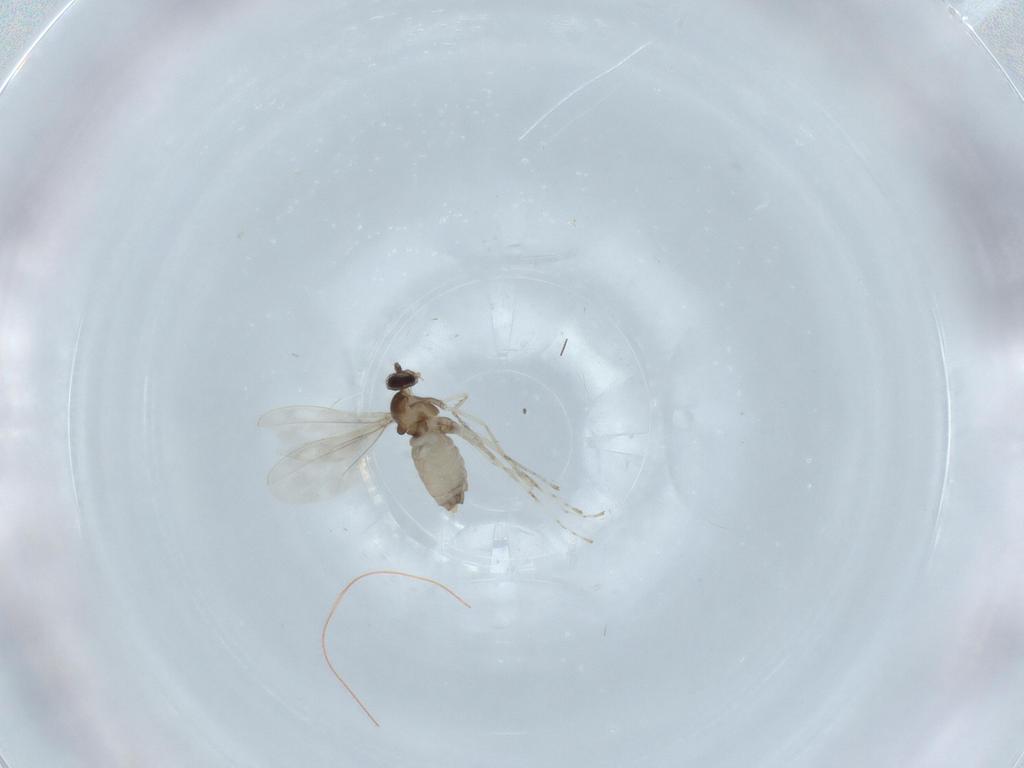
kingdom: Animalia
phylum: Arthropoda
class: Insecta
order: Diptera
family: Cecidomyiidae
